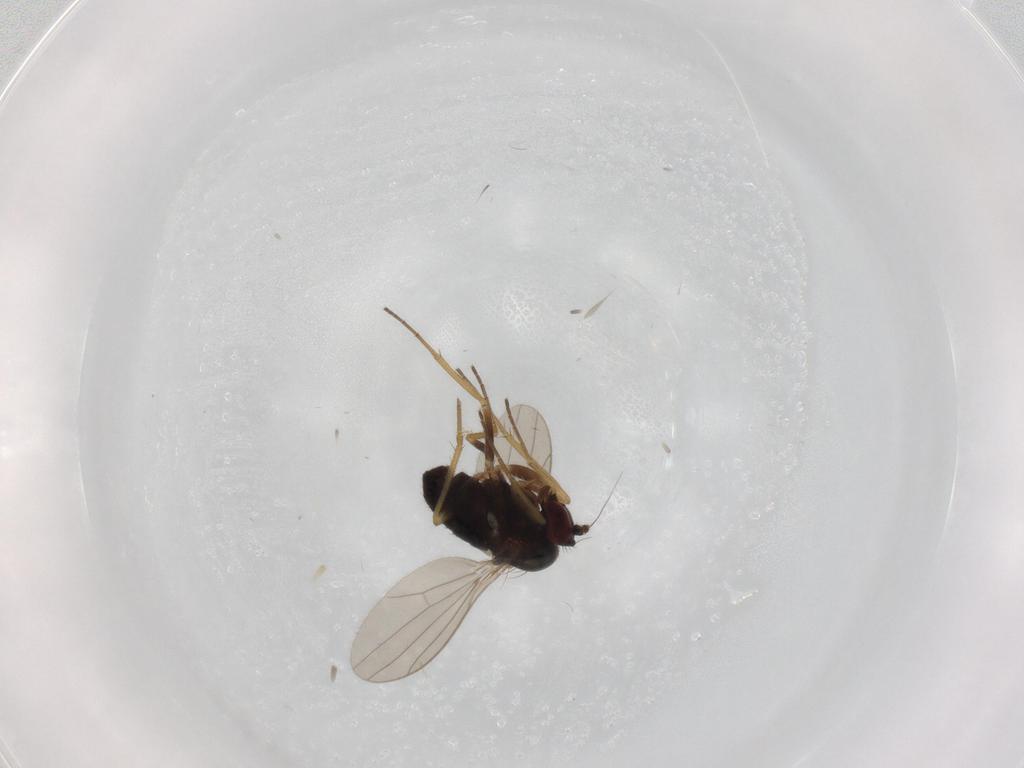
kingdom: Animalia
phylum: Arthropoda
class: Insecta
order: Diptera
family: Dolichopodidae
